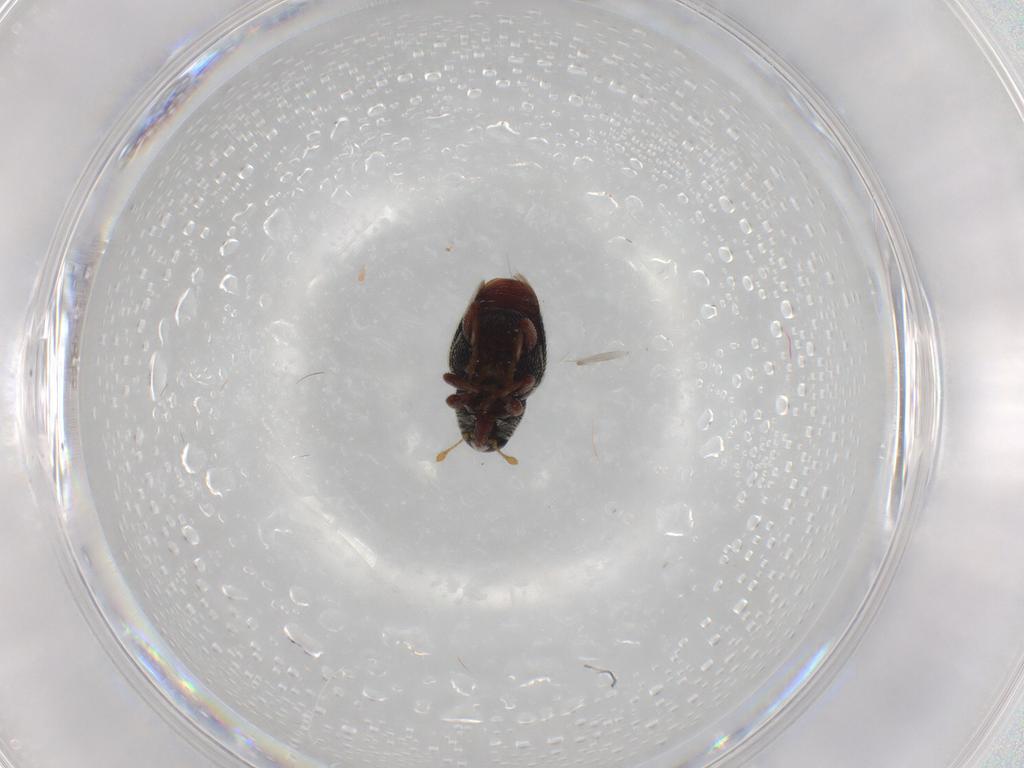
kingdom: Animalia
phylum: Arthropoda
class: Insecta
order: Coleoptera
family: Curculionidae
